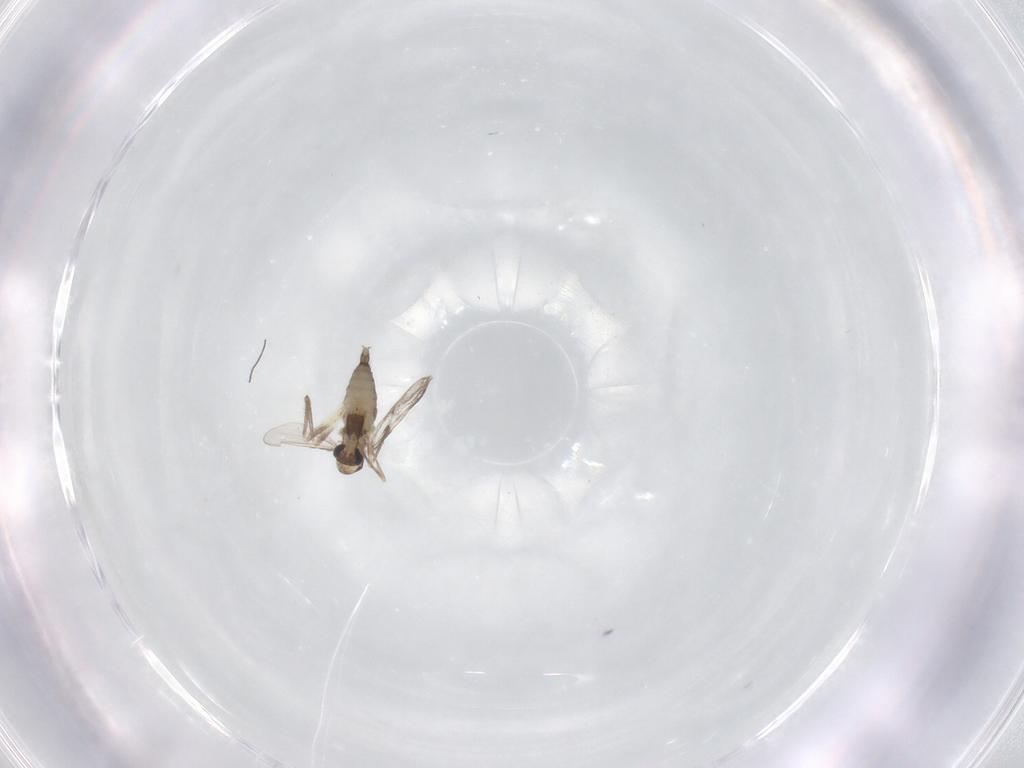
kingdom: Animalia
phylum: Arthropoda
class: Insecta
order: Diptera
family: Chironomidae
